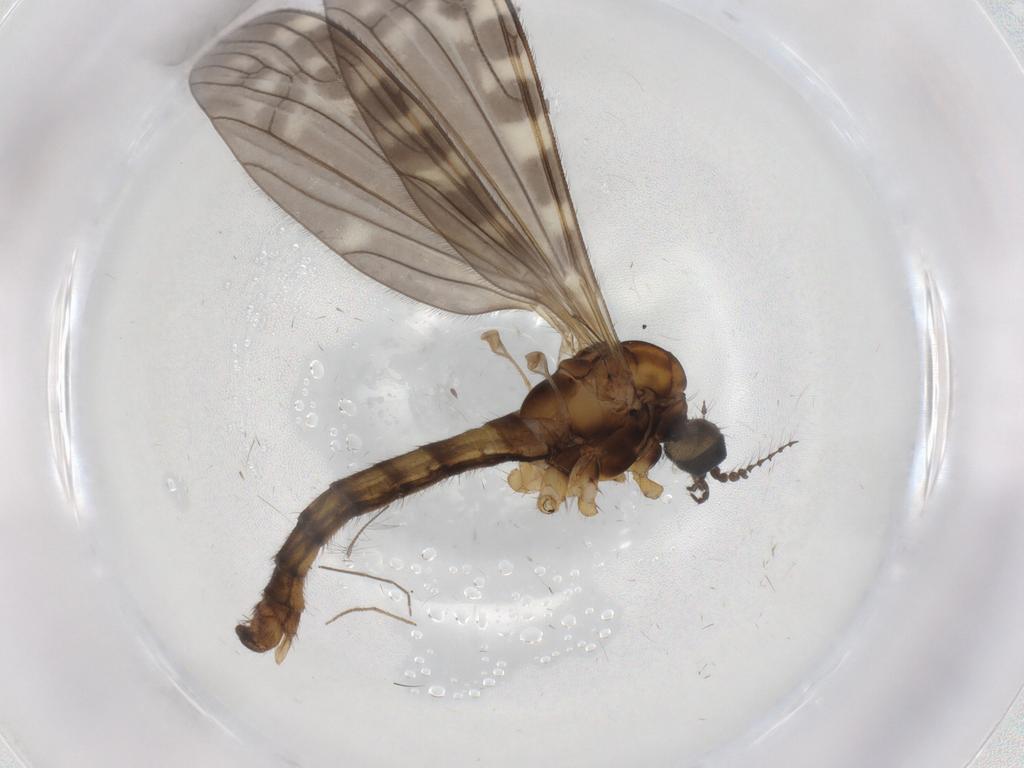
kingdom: Animalia
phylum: Arthropoda
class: Insecta
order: Diptera
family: Limoniidae
